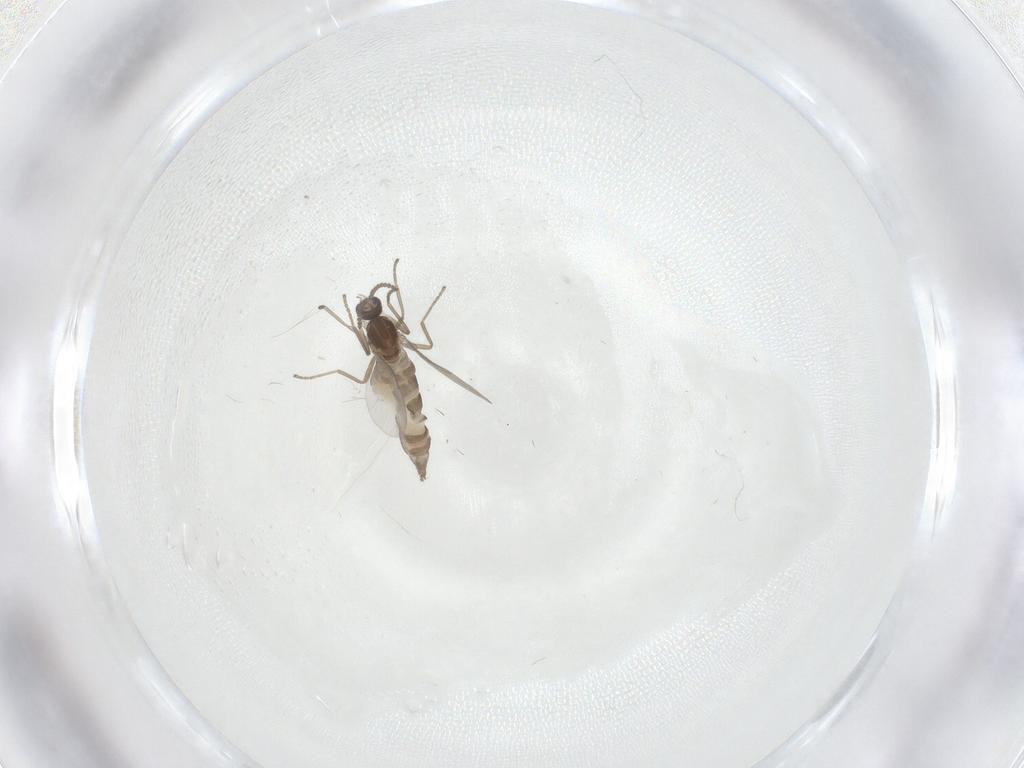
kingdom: Animalia
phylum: Arthropoda
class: Insecta
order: Diptera
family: Cecidomyiidae
